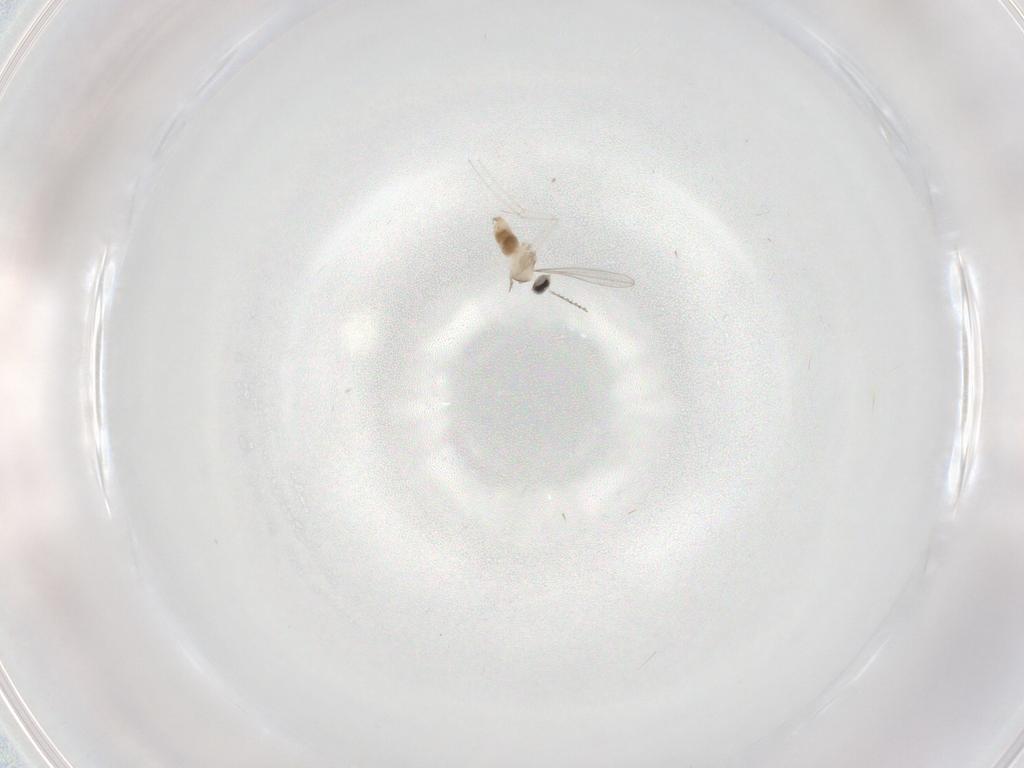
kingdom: Animalia
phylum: Arthropoda
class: Insecta
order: Diptera
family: Cecidomyiidae
